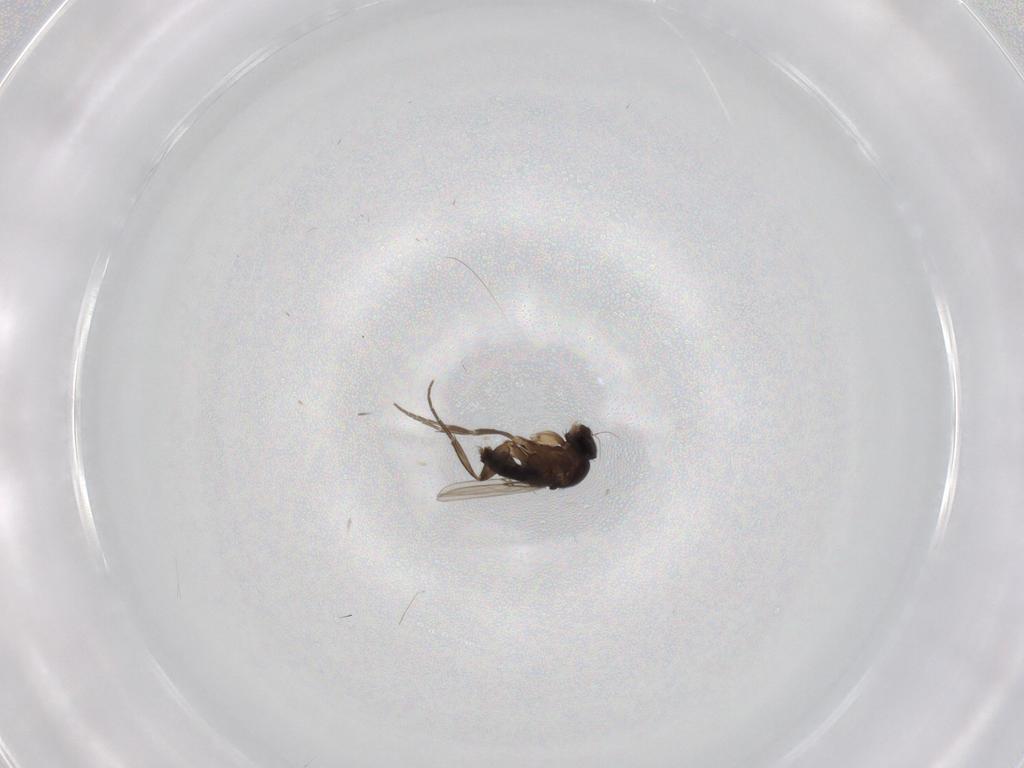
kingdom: Animalia
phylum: Arthropoda
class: Insecta
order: Diptera
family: Phoridae
